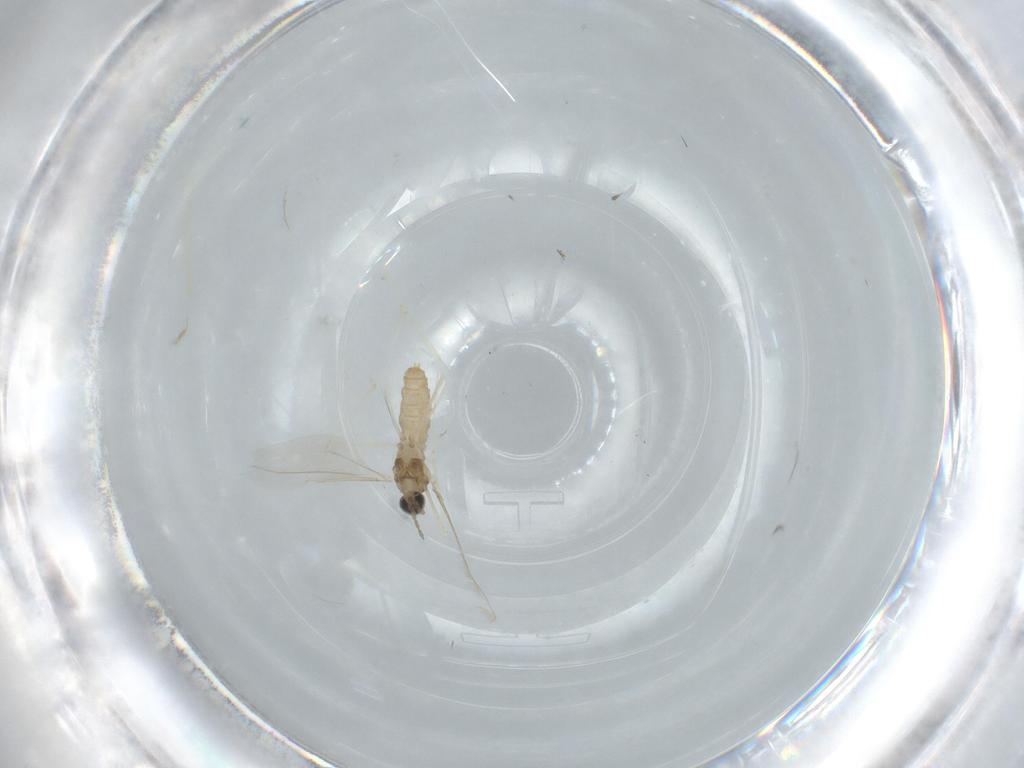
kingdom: Animalia
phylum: Arthropoda
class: Insecta
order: Diptera
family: Cecidomyiidae
